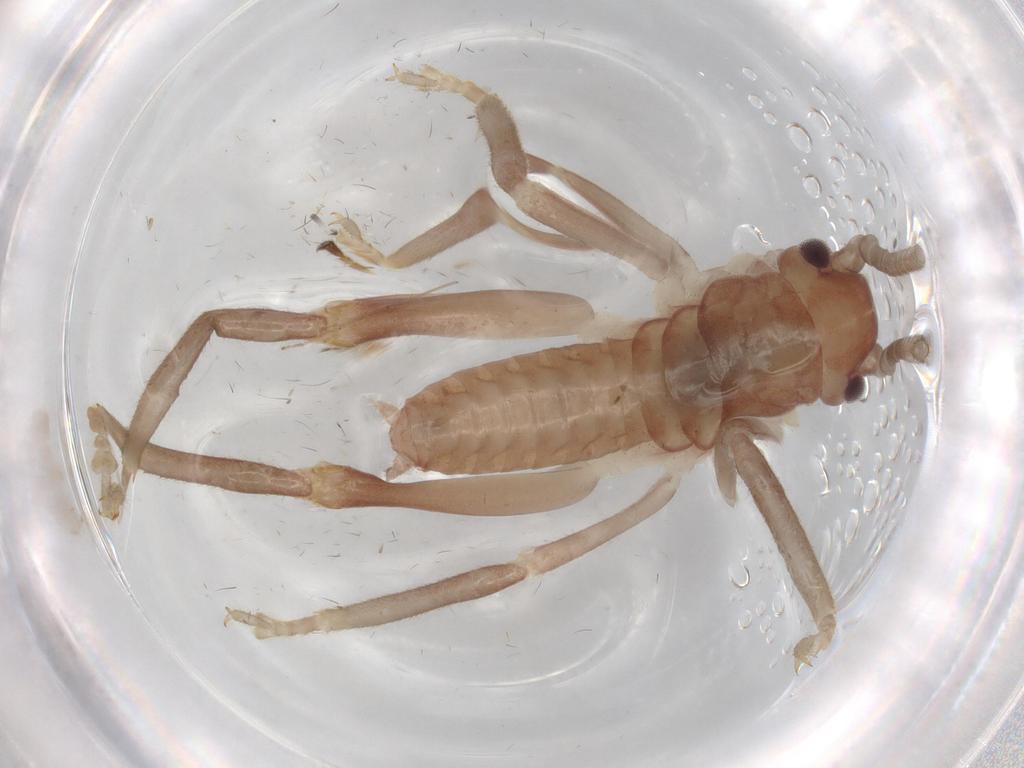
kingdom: Animalia
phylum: Arthropoda
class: Insecta
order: Orthoptera
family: Gryllacrididae
